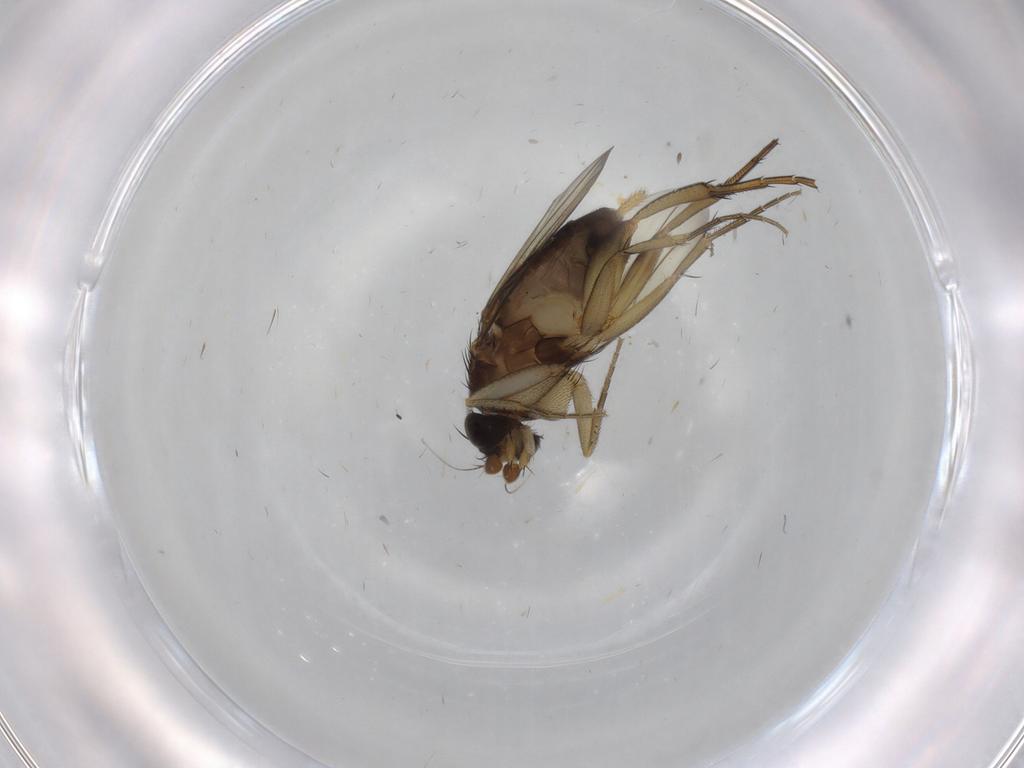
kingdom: Animalia
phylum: Arthropoda
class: Insecta
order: Diptera
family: Phoridae
